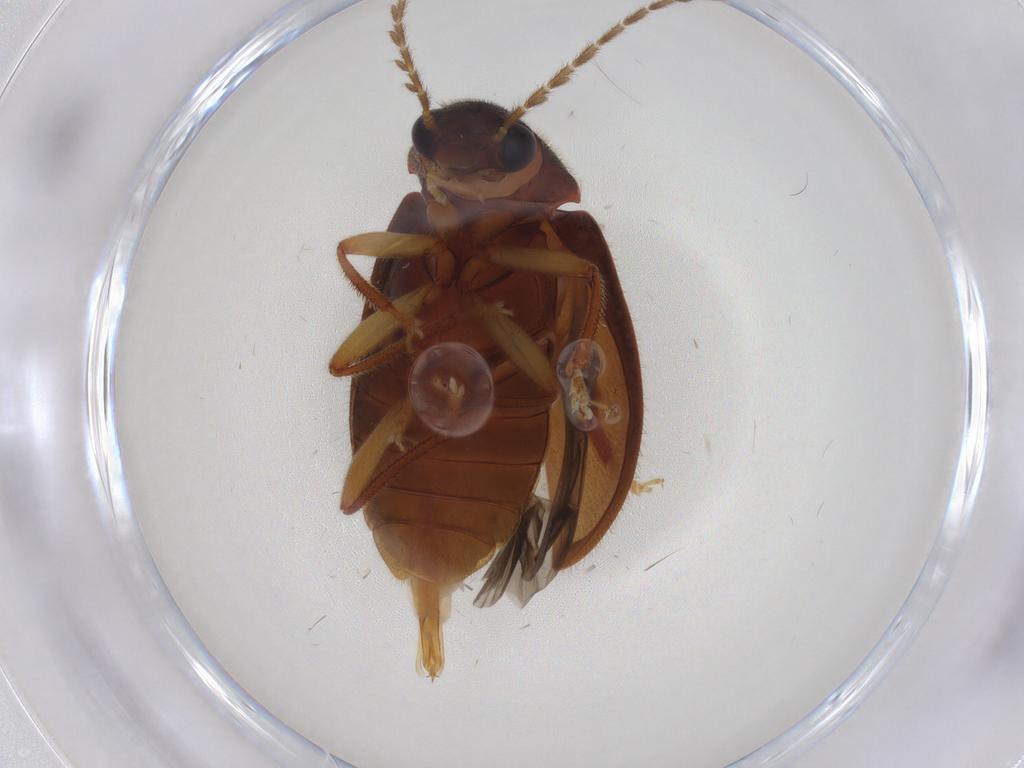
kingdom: Animalia
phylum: Arthropoda
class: Insecta
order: Coleoptera
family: Ptilodactylidae
